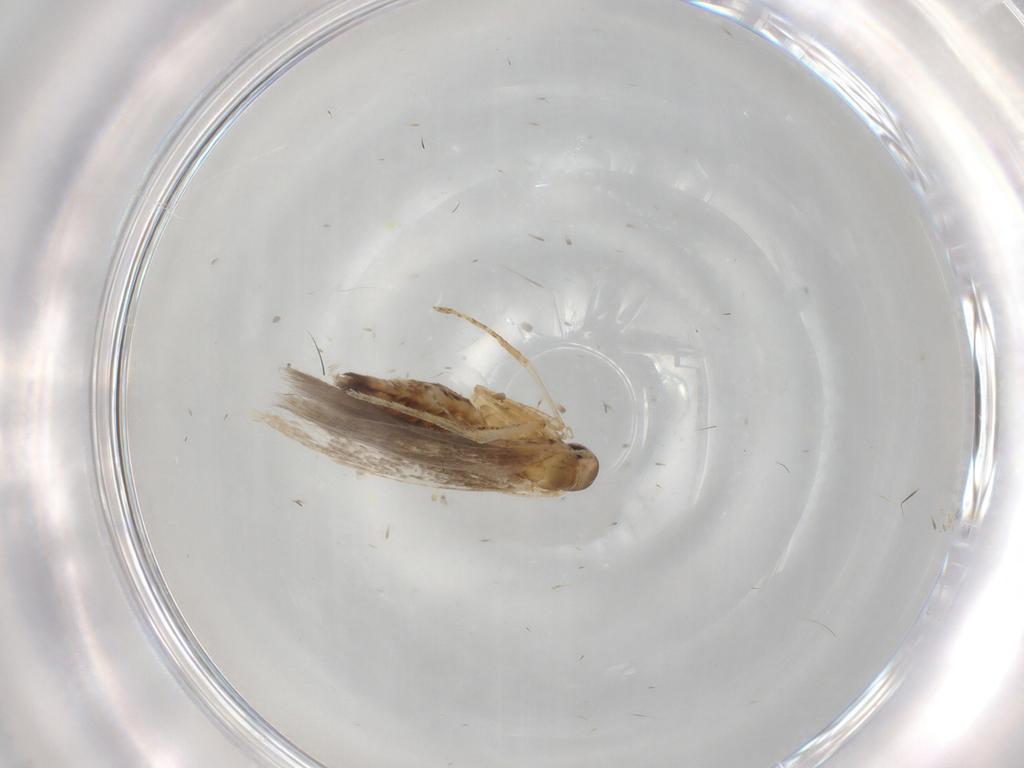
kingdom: Animalia
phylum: Arthropoda
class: Insecta
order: Lepidoptera
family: Crambidae
